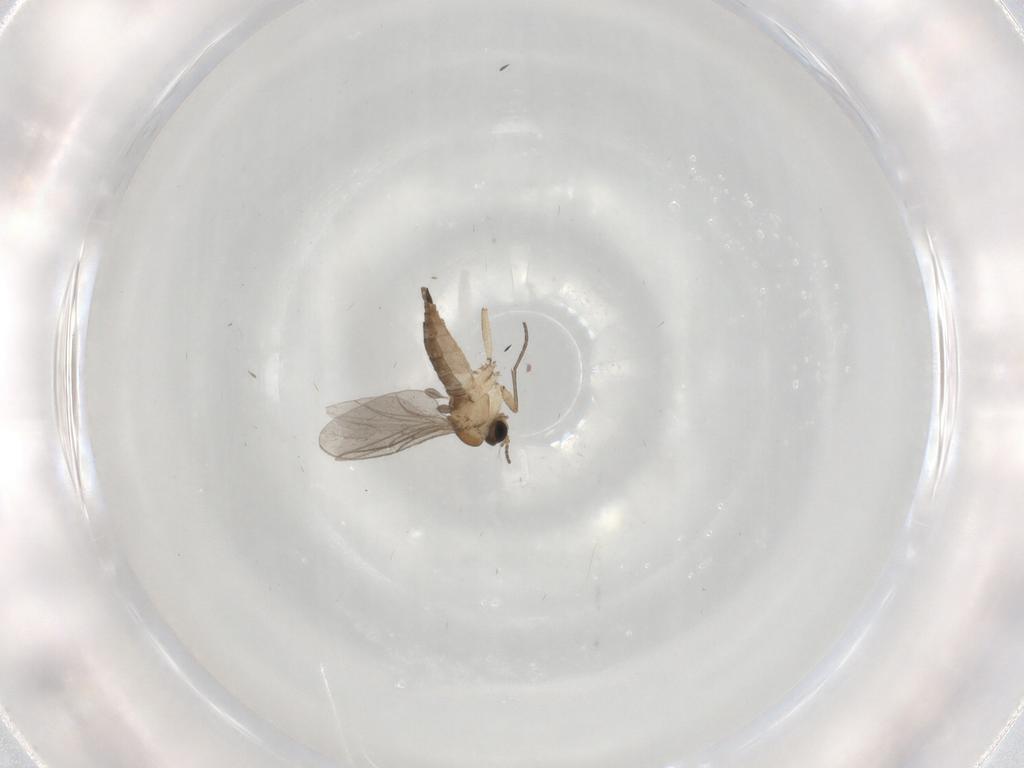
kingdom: Animalia
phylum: Arthropoda
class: Insecta
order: Diptera
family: Sciaridae
